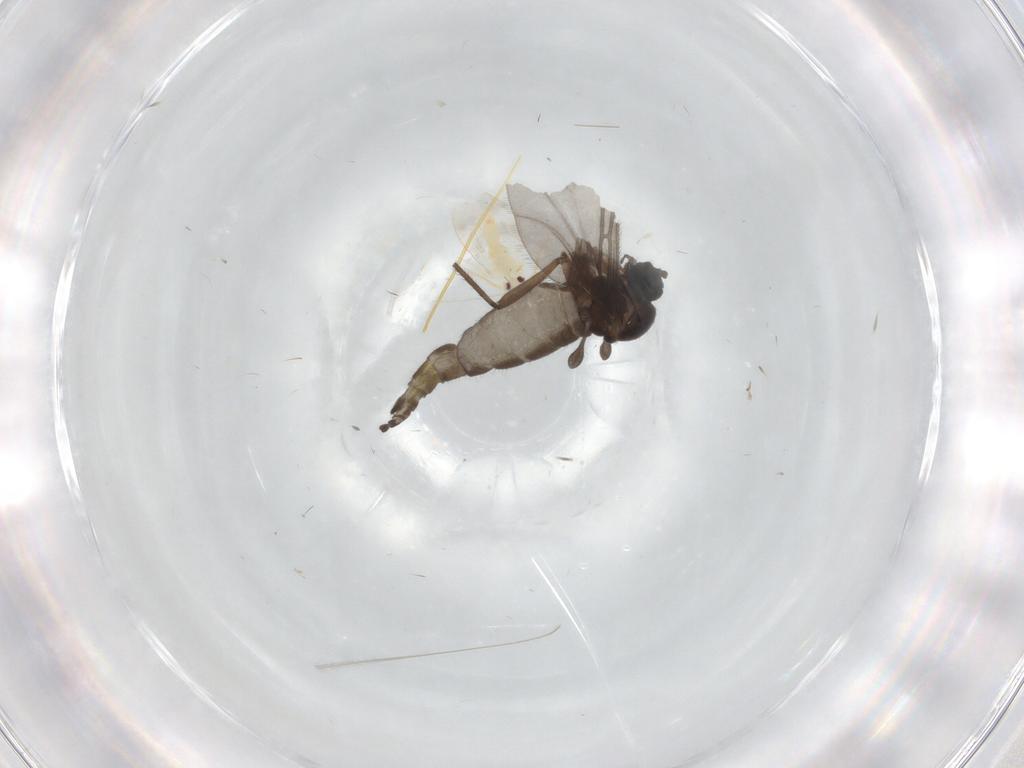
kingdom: Animalia
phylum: Arthropoda
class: Insecta
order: Diptera
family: Sciaridae
